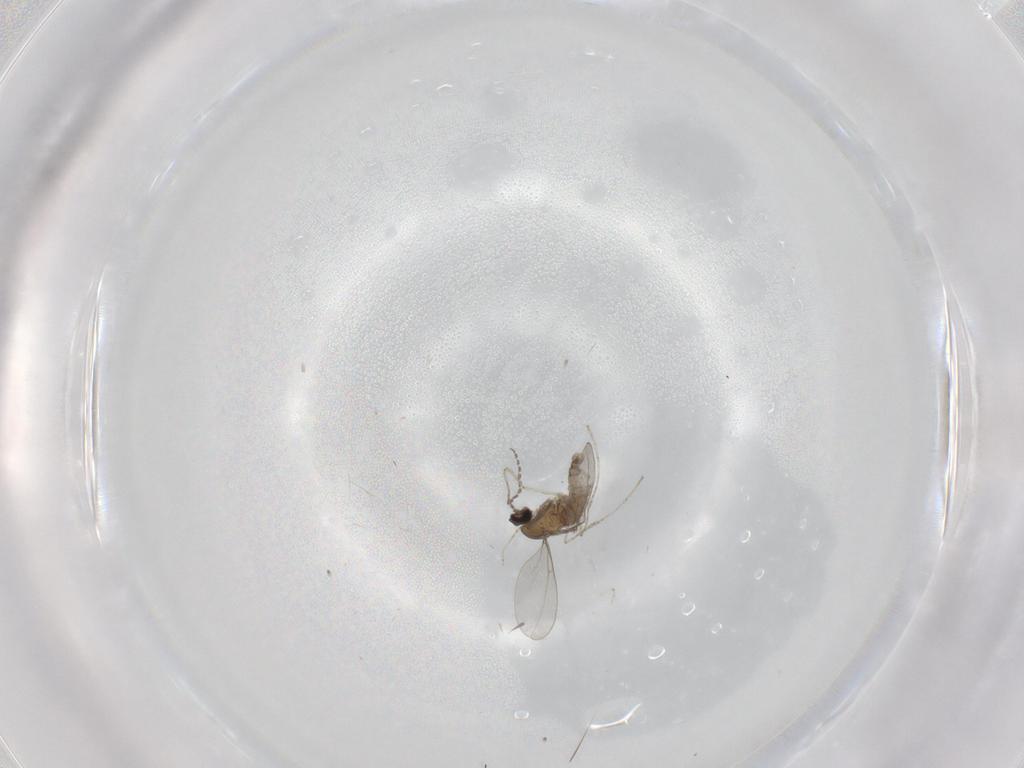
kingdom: Animalia
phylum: Arthropoda
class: Insecta
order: Diptera
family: Cecidomyiidae
